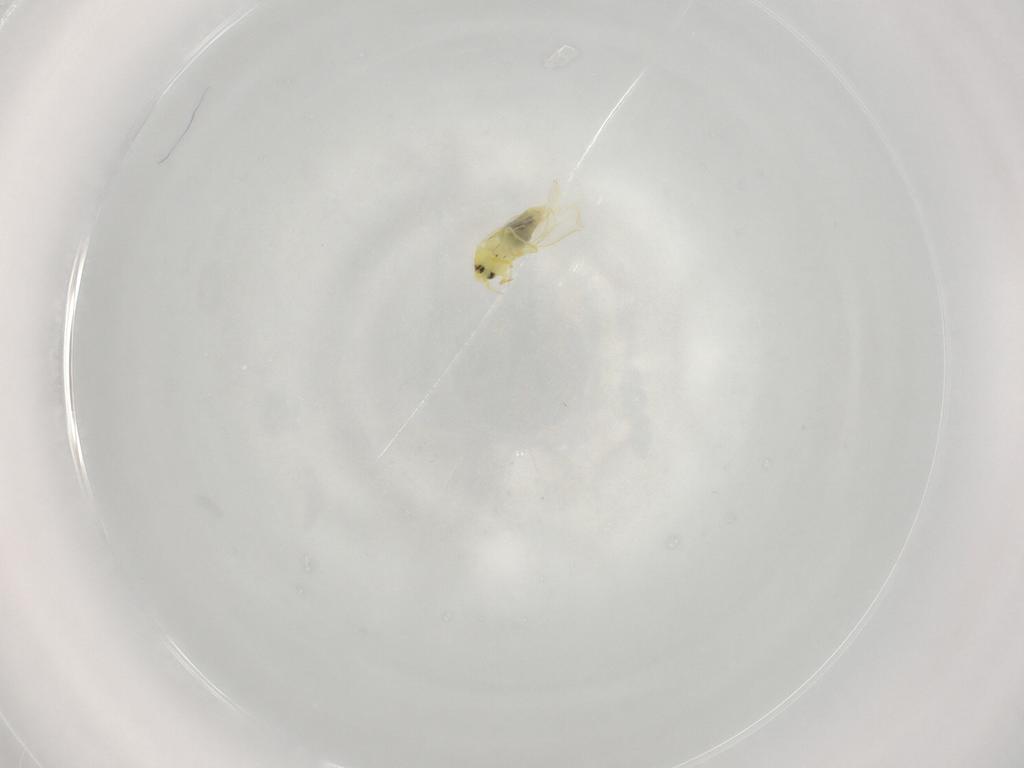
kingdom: Animalia
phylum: Arthropoda
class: Insecta
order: Hemiptera
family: Aleyrodidae
